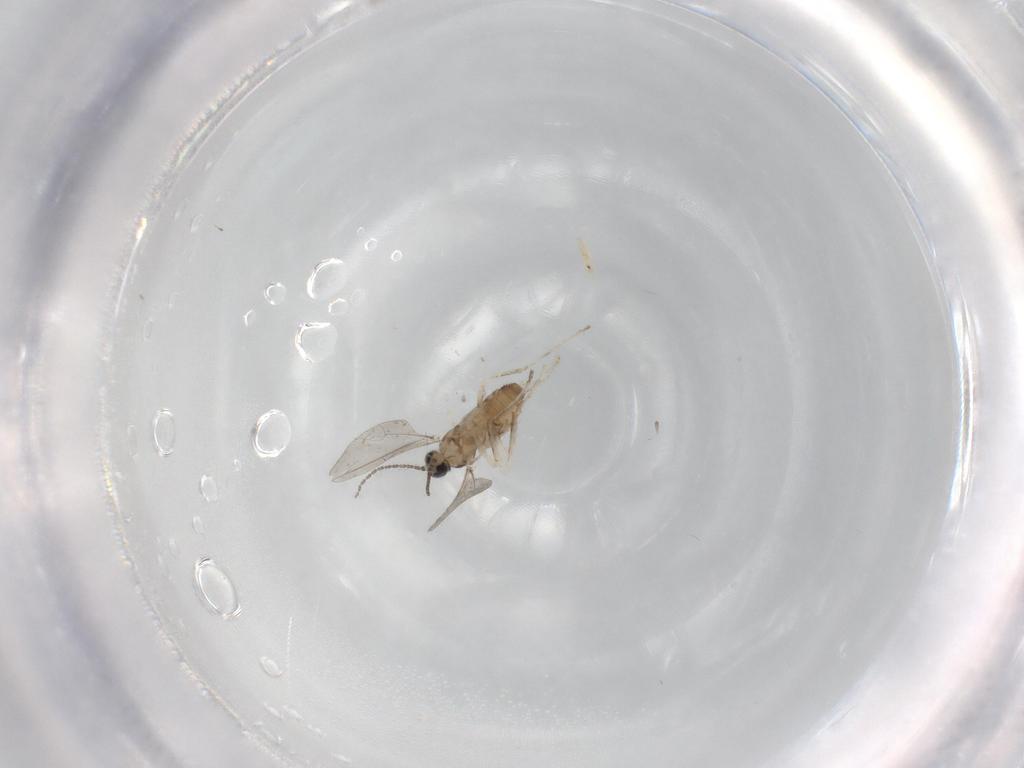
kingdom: Animalia
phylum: Arthropoda
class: Insecta
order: Diptera
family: Cecidomyiidae
